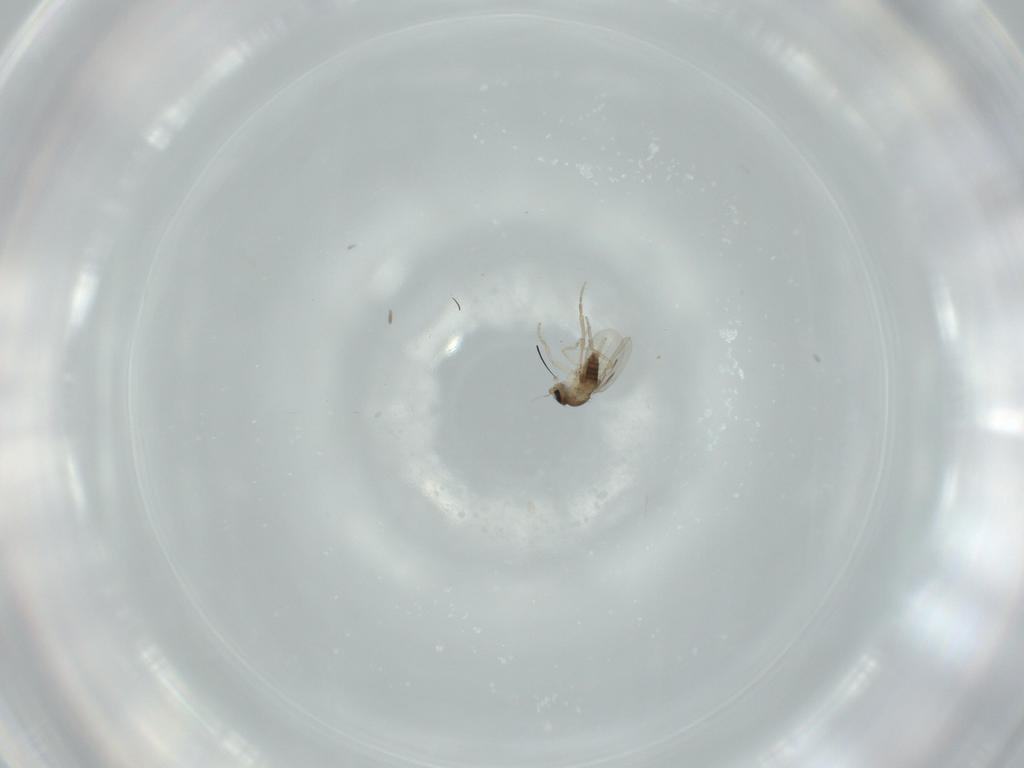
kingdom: Animalia
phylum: Arthropoda
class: Insecta
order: Diptera
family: Phoridae
